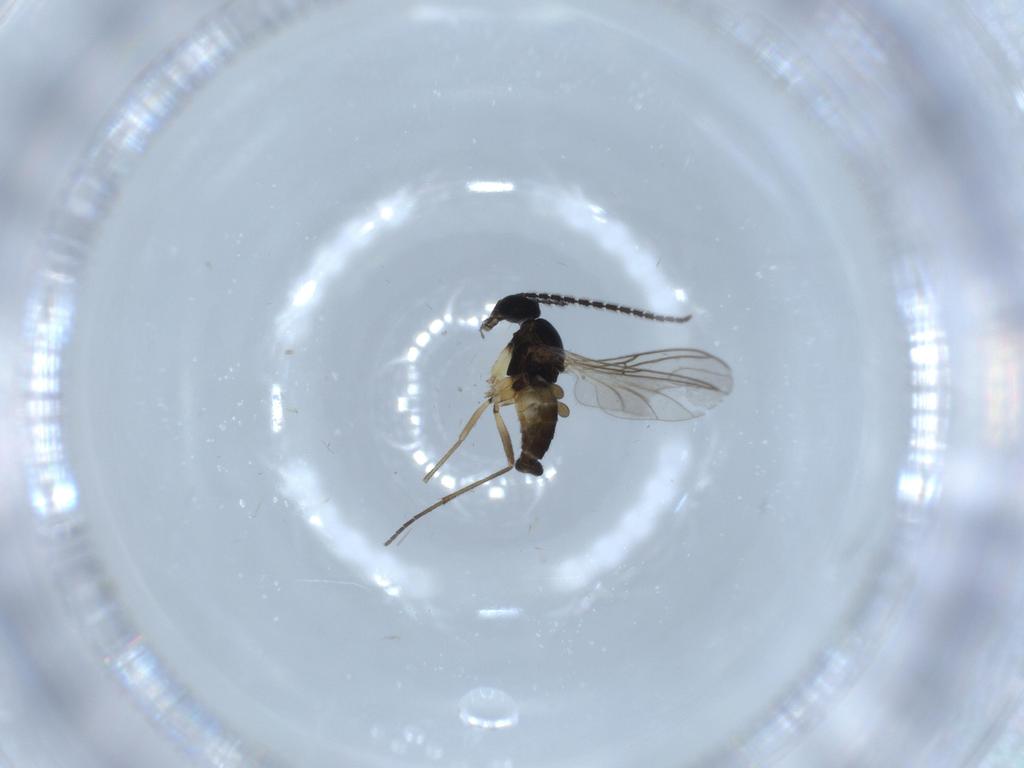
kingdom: Animalia
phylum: Arthropoda
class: Insecta
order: Diptera
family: Sciaridae
